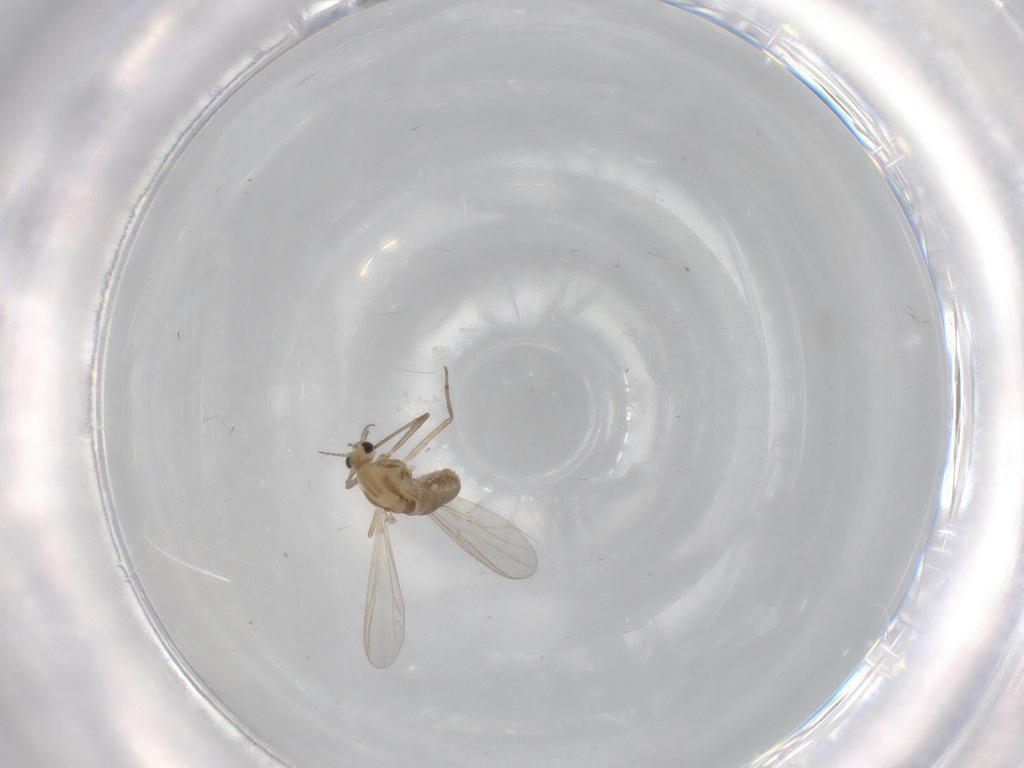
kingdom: Animalia
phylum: Arthropoda
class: Insecta
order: Diptera
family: Chironomidae
